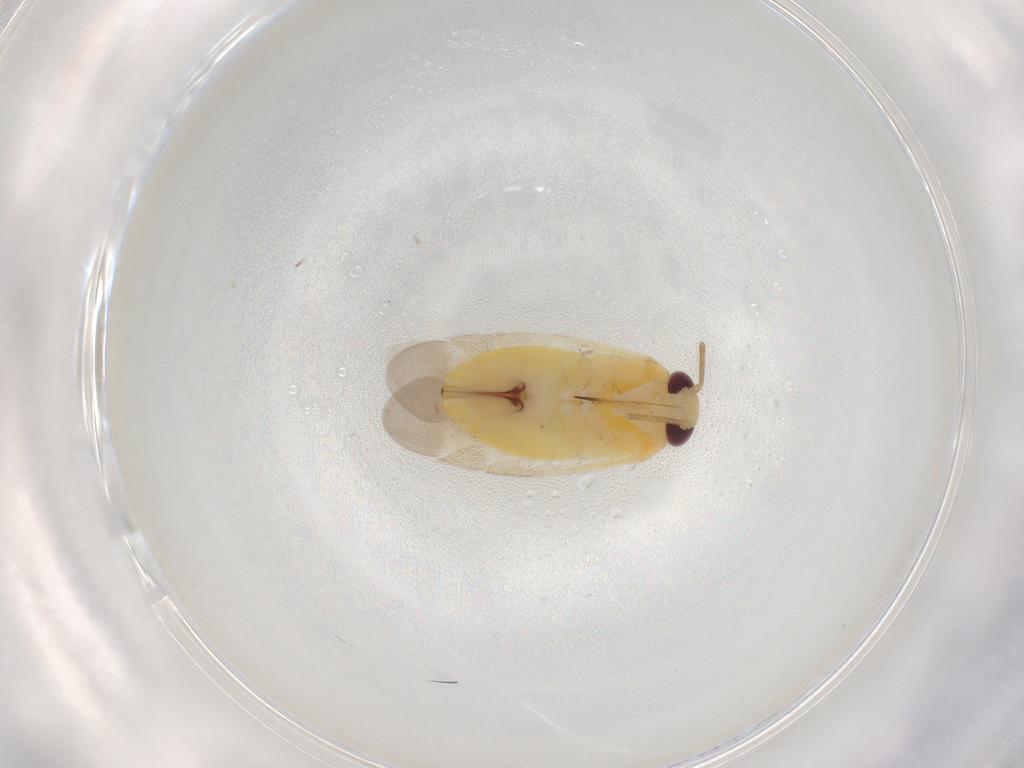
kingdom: Animalia
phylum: Arthropoda
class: Insecta
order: Hemiptera
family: Miridae
